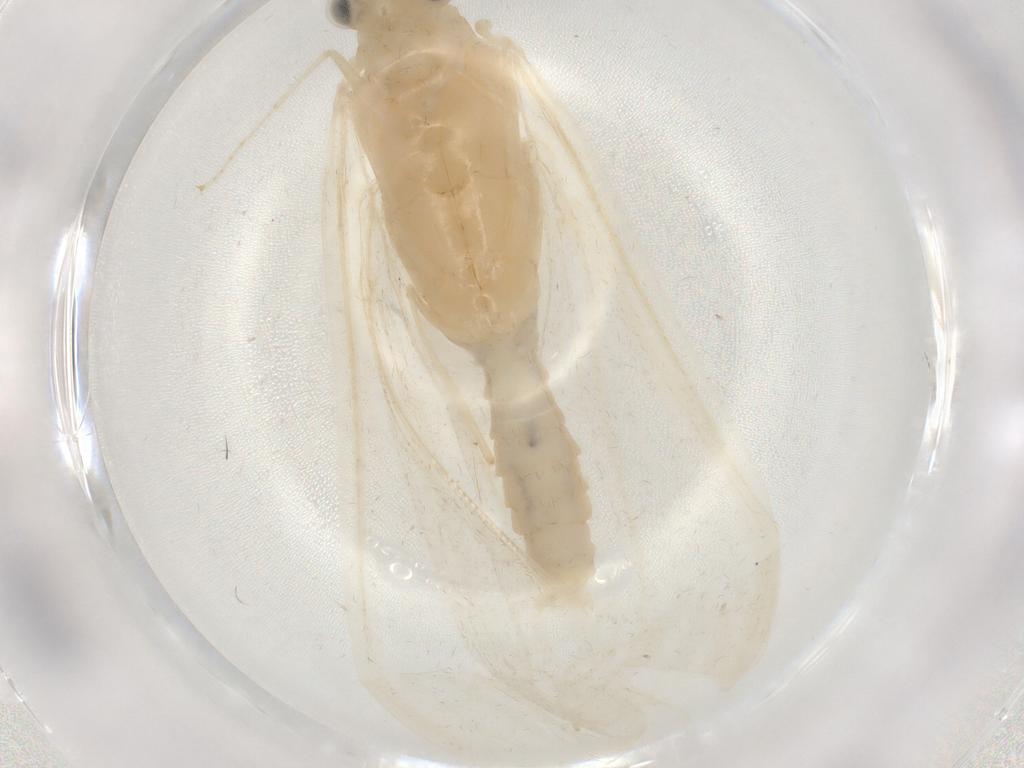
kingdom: Animalia
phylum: Arthropoda
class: Insecta
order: Trichoptera
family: Leptoceridae
